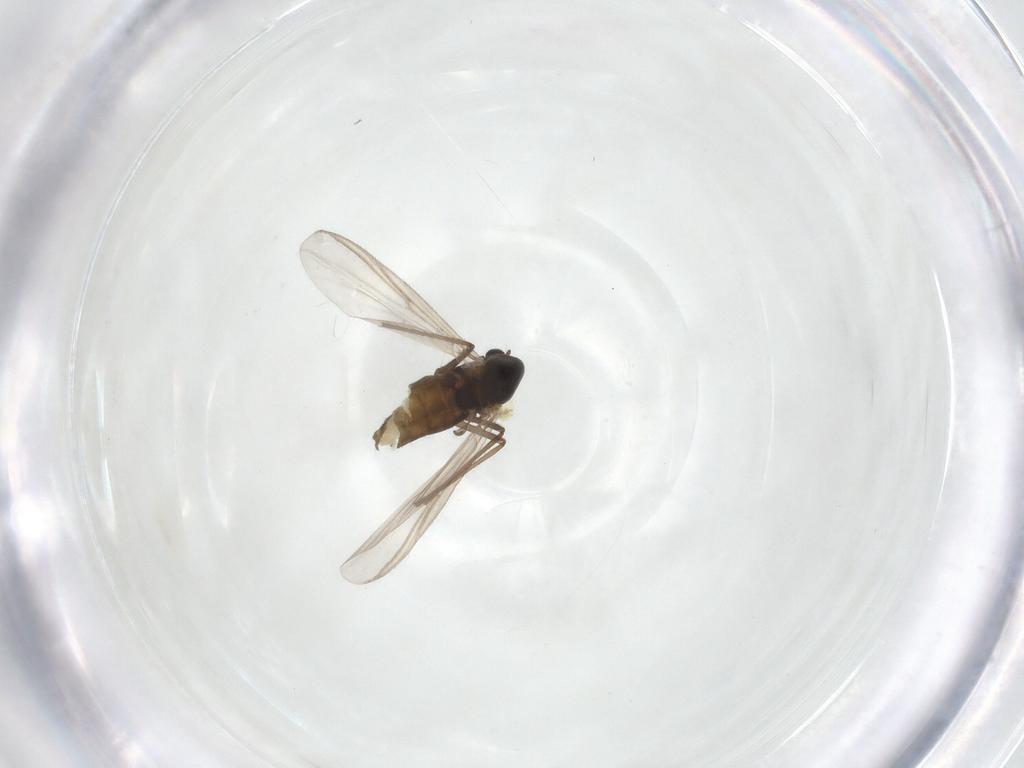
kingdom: Animalia
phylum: Arthropoda
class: Insecta
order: Diptera
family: Chironomidae
